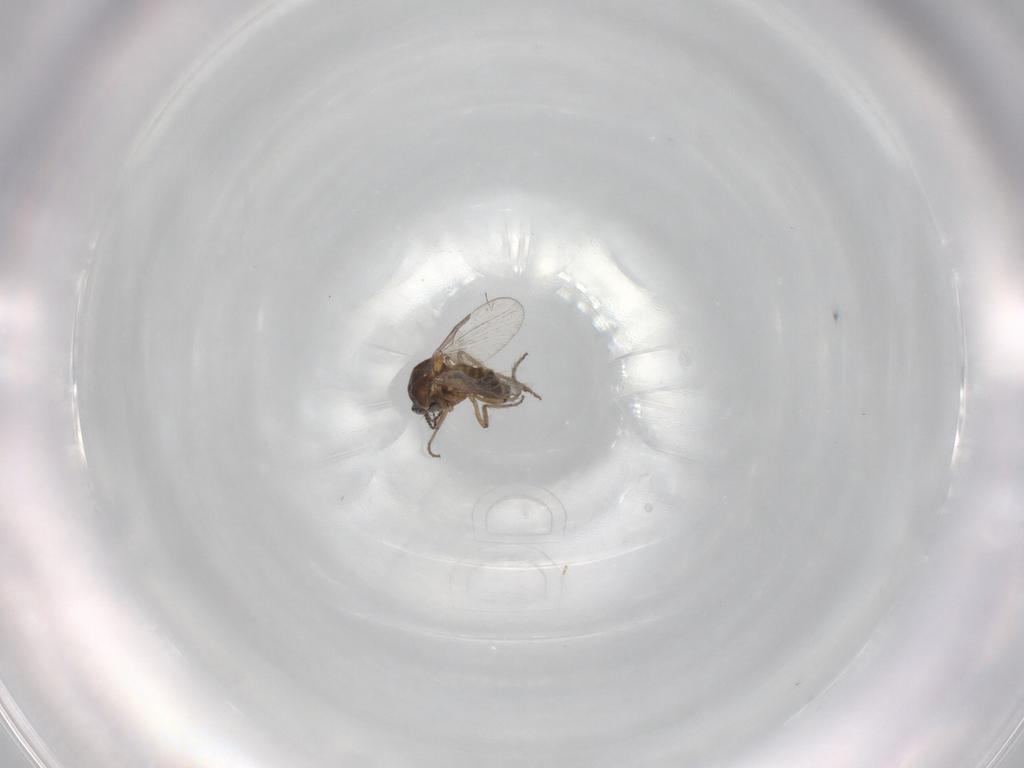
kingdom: Animalia
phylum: Arthropoda
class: Insecta
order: Diptera
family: Ceratopogonidae
